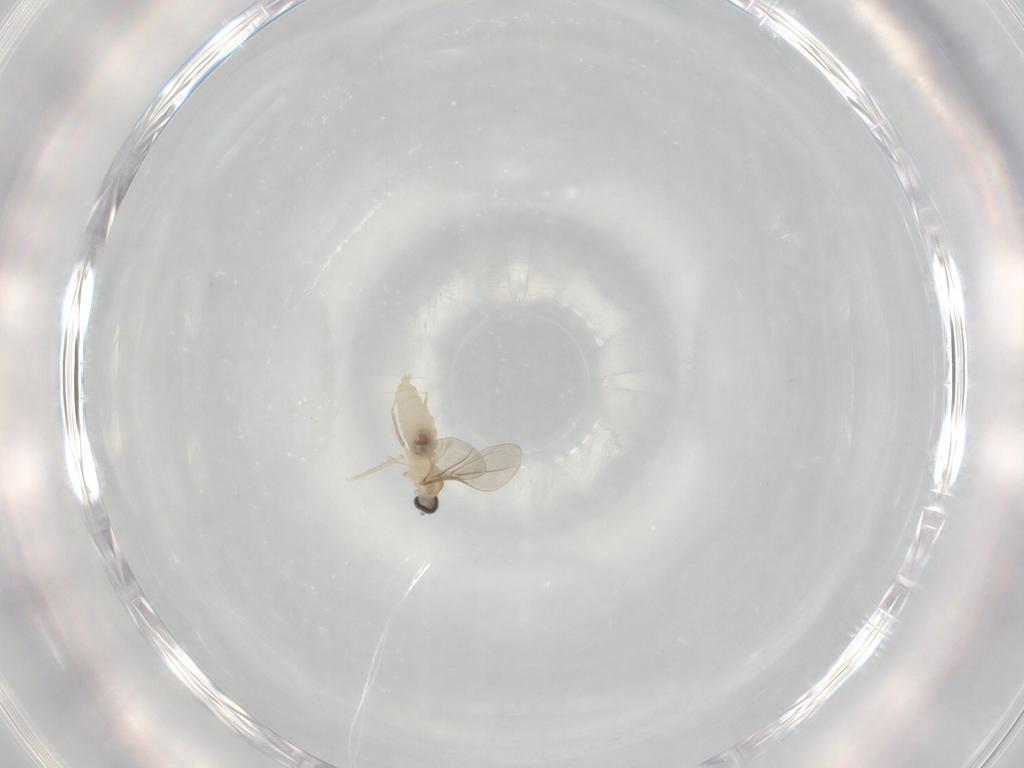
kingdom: Animalia
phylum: Arthropoda
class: Insecta
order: Diptera
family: Cecidomyiidae
